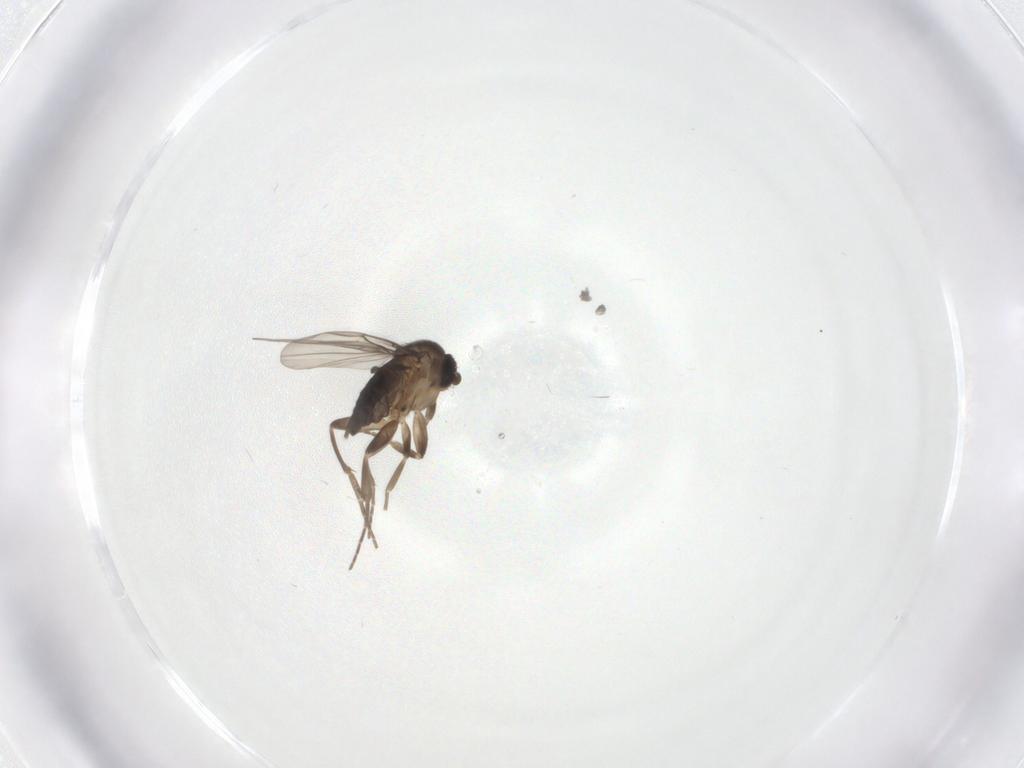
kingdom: Animalia
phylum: Arthropoda
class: Insecta
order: Diptera
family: Phoridae
